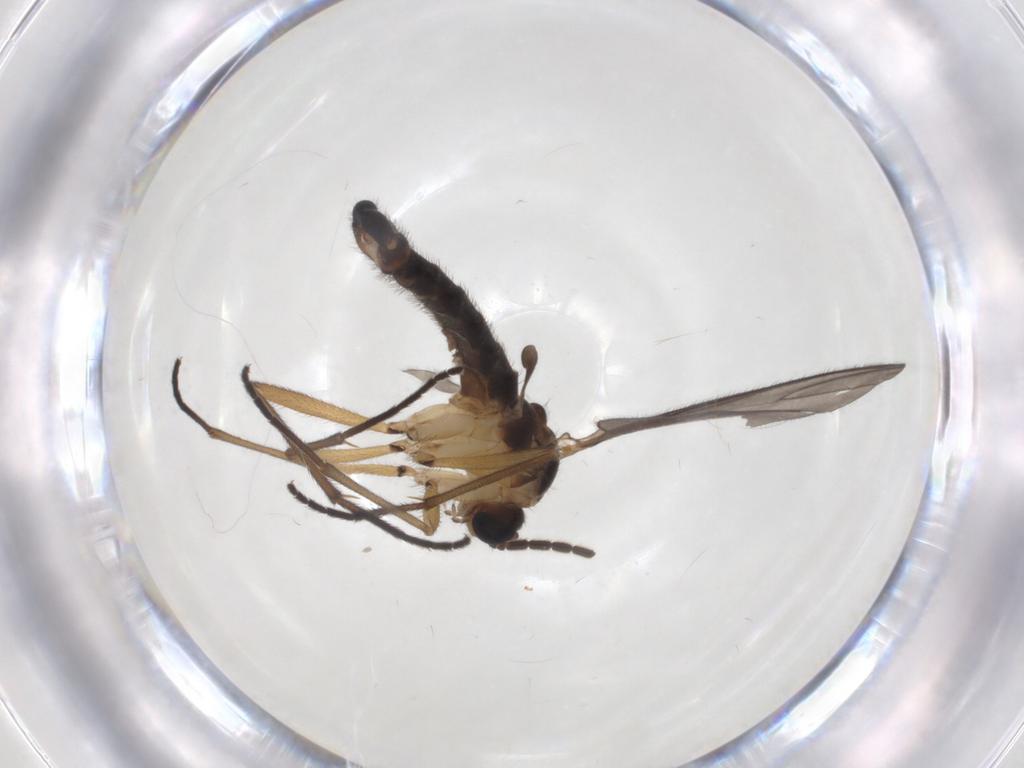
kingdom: Animalia
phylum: Arthropoda
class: Insecta
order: Diptera
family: Sciaridae
